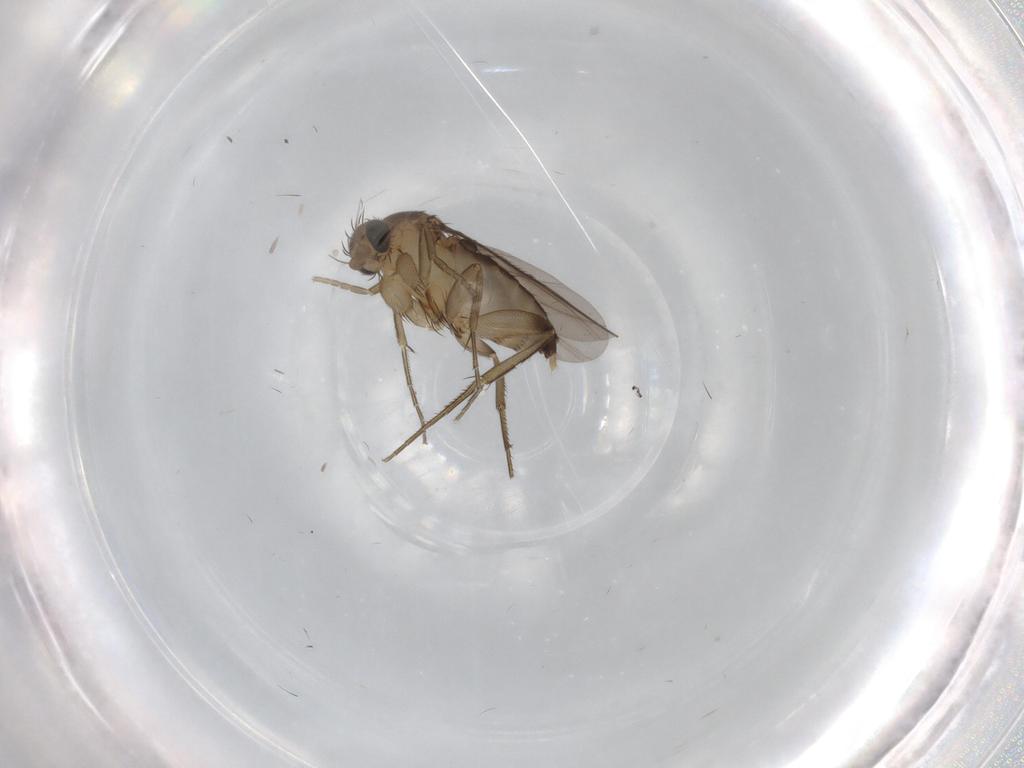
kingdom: Animalia
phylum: Arthropoda
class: Insecta
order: Diptera
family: Phoridae
